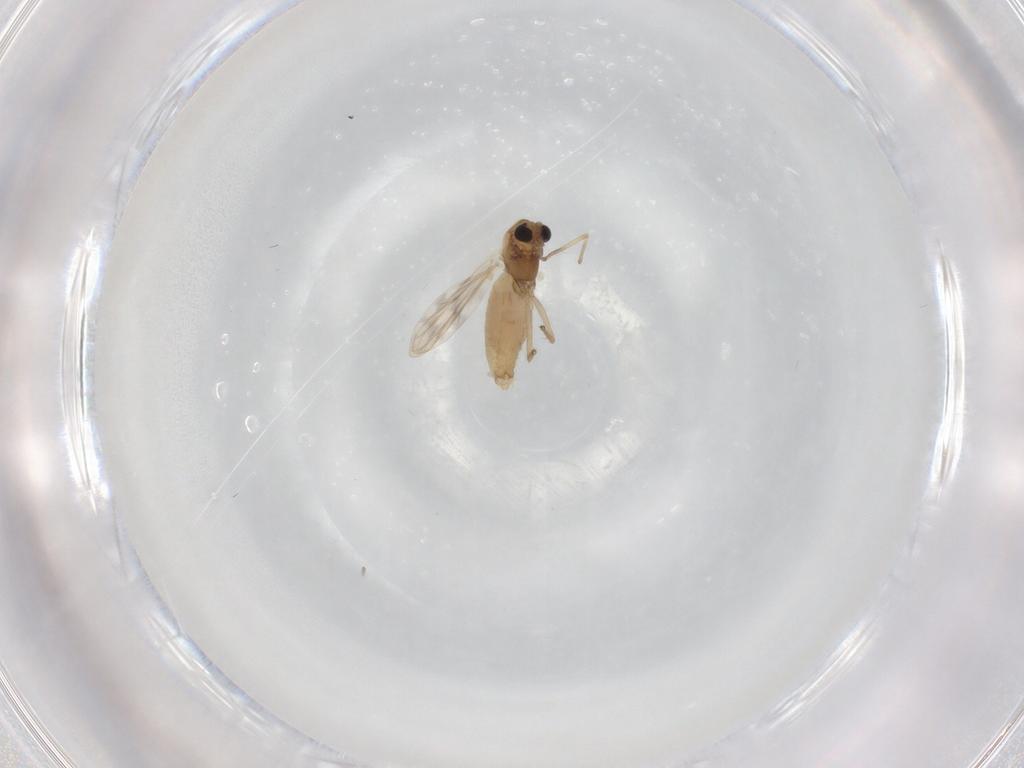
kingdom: Animalia
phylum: Arthropoda
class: Insecta
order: Diptera
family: Chironomidae
